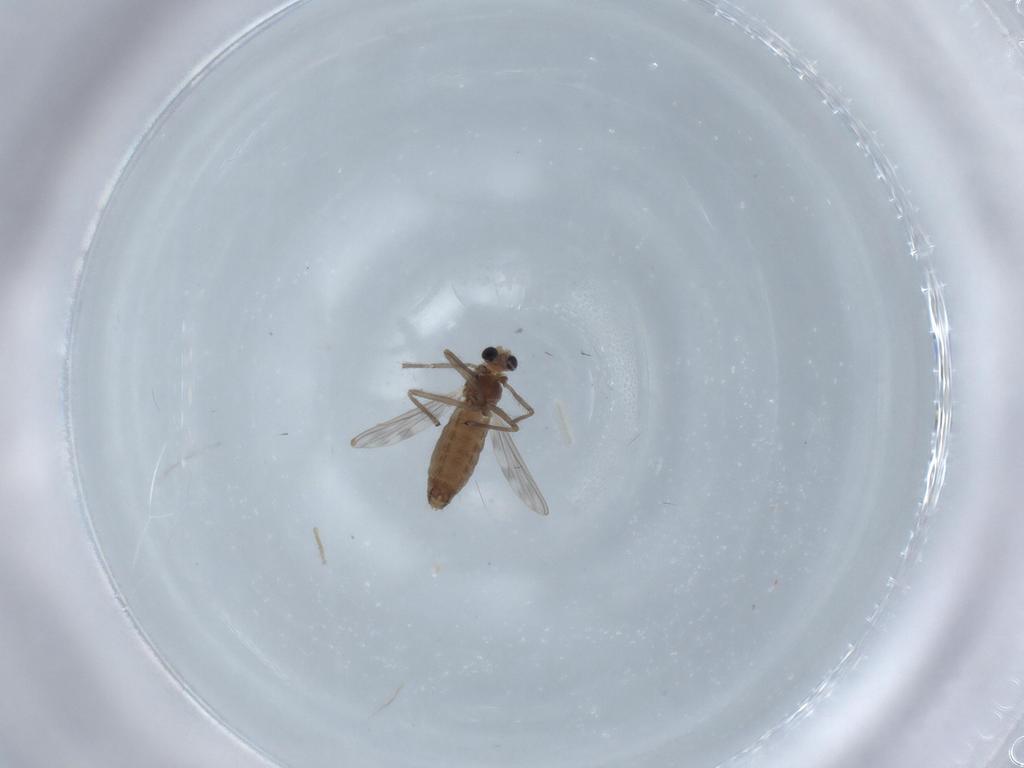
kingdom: Animalia
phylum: Arthropoda
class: Insecta
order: Diptera
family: Chironomidae
